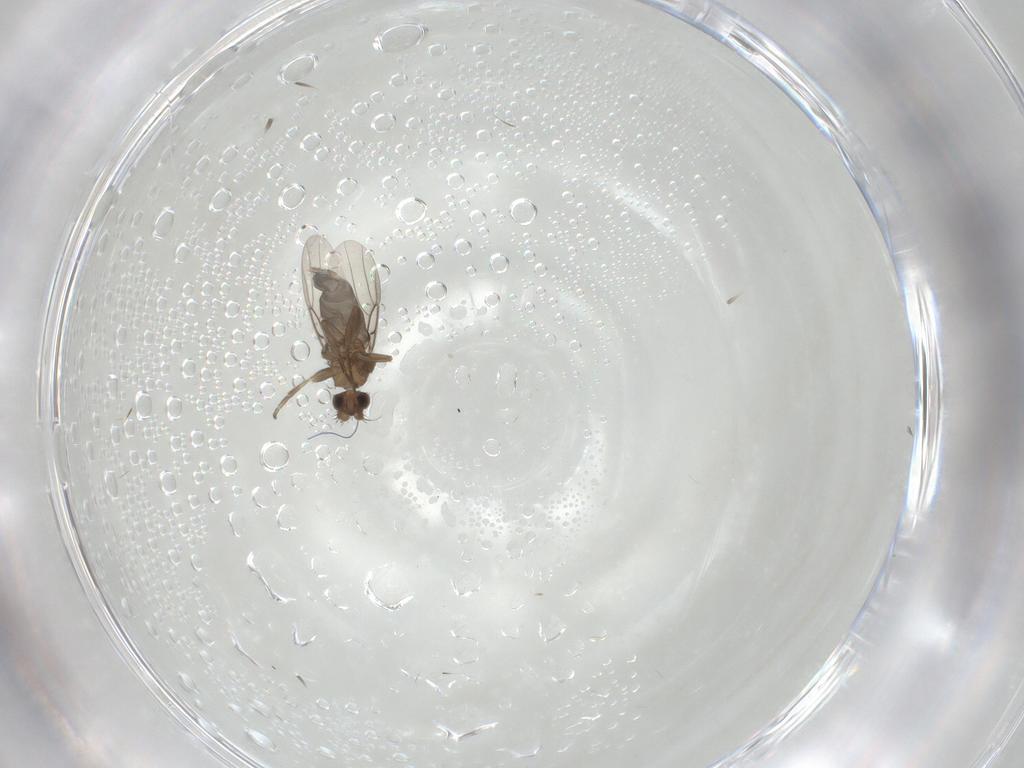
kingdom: Animalia
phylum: Arthropoda
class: Insecta
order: Diptera
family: Phoridae
